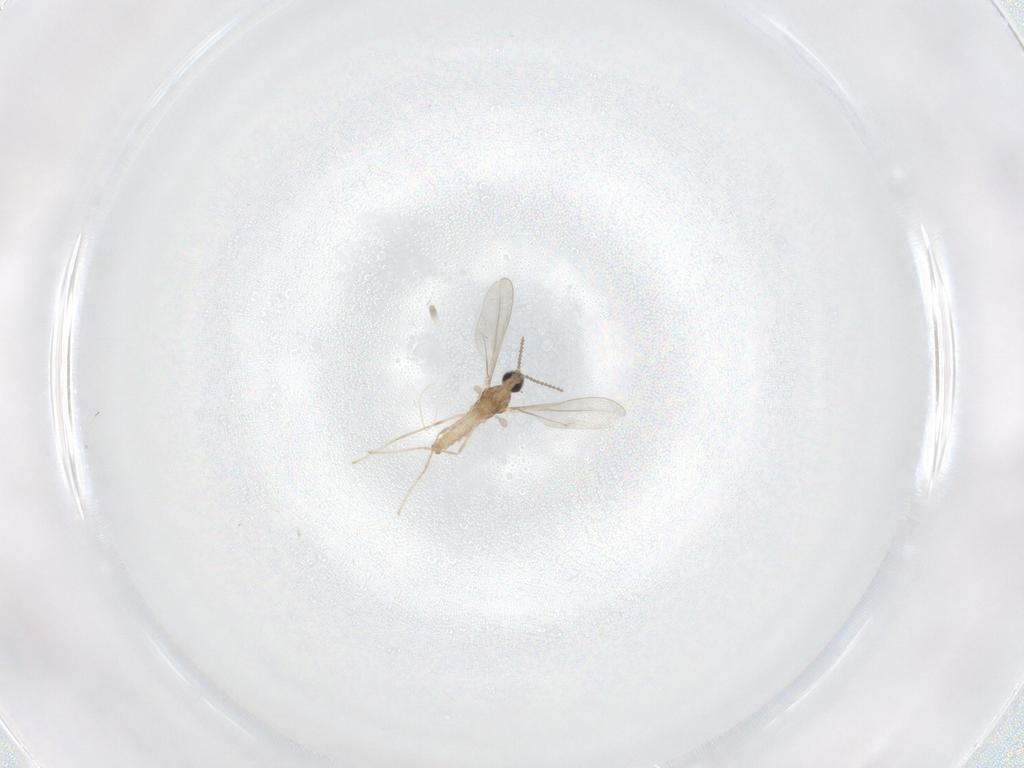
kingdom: Animalia
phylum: Arthropoda
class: Insecta
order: Diptera
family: Cecidomyiidae
